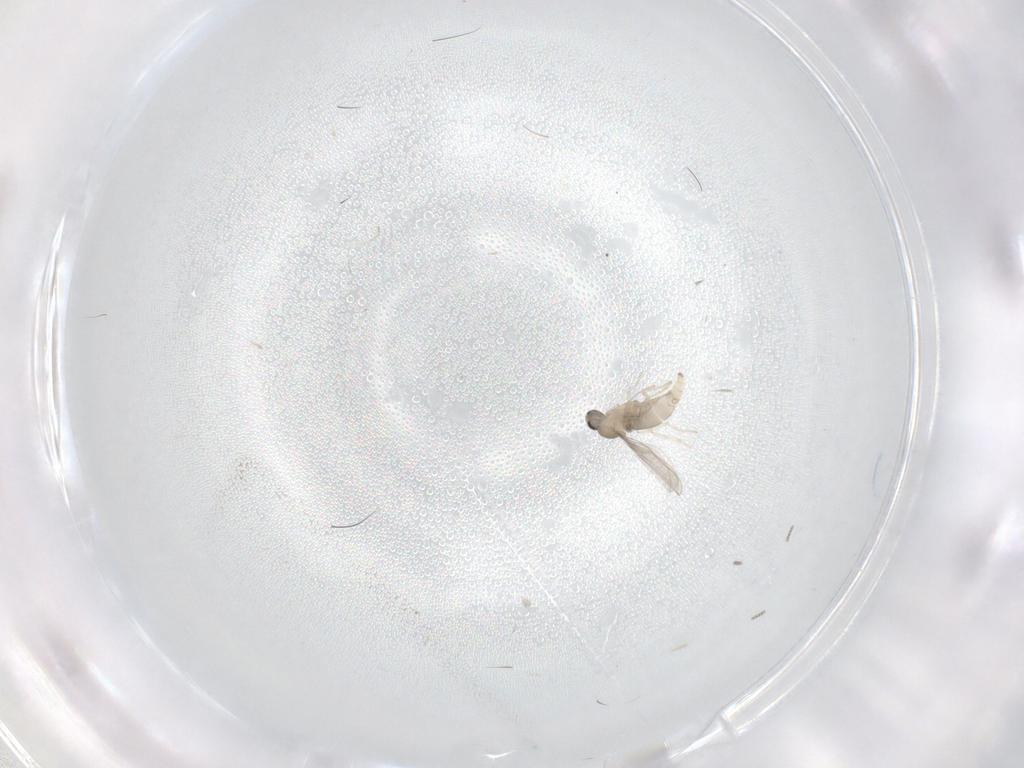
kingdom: Animalia
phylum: Arthropoda
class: Insecta
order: Diptera
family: Cecidomyiidae
